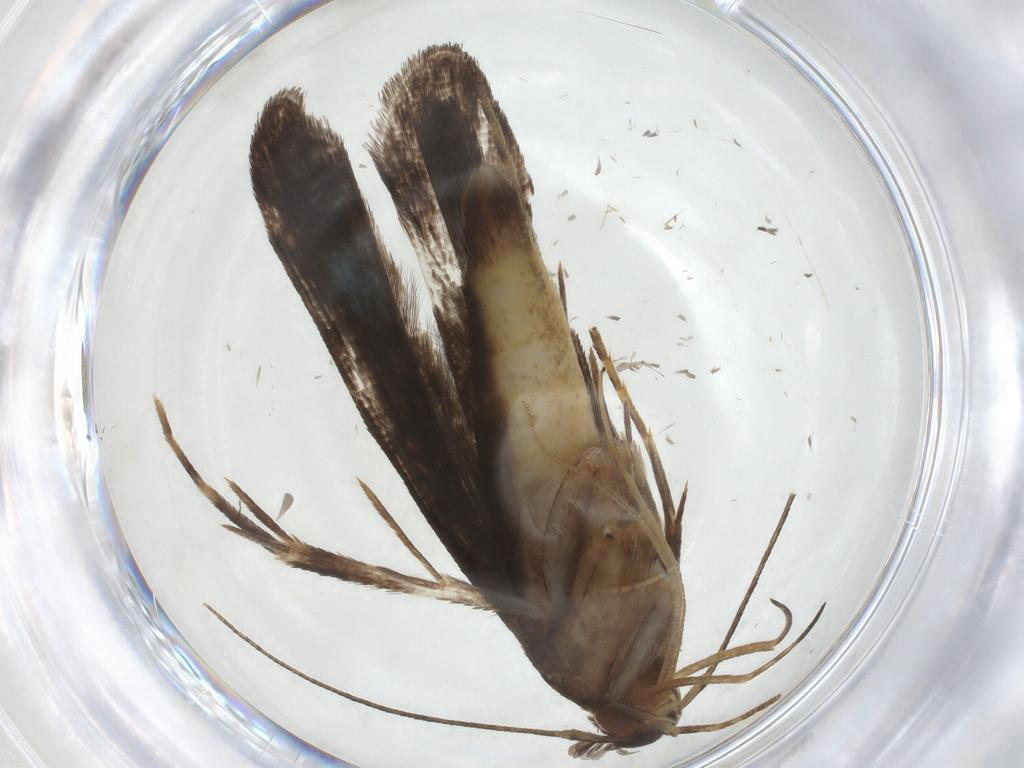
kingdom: Animalia
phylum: Arthropoda
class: Insecta
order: Lepidoptera
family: Gelechiidae
